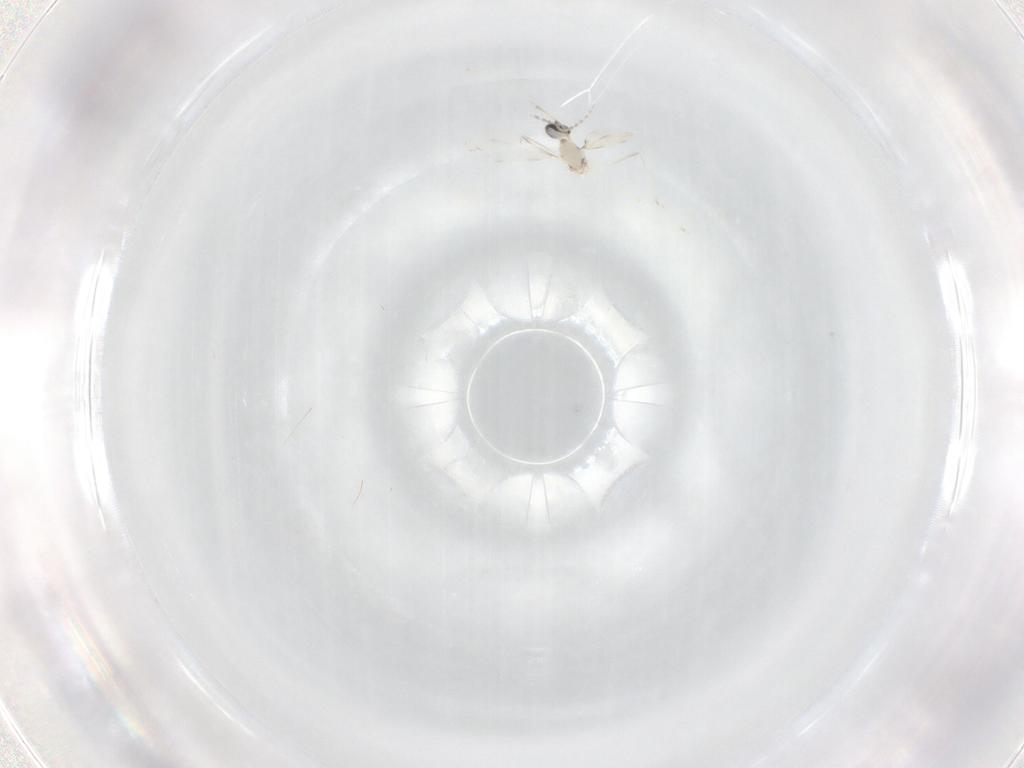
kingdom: Animalia
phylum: Arthropoda
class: Insecta
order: Diptera
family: Cecidomyiidae
